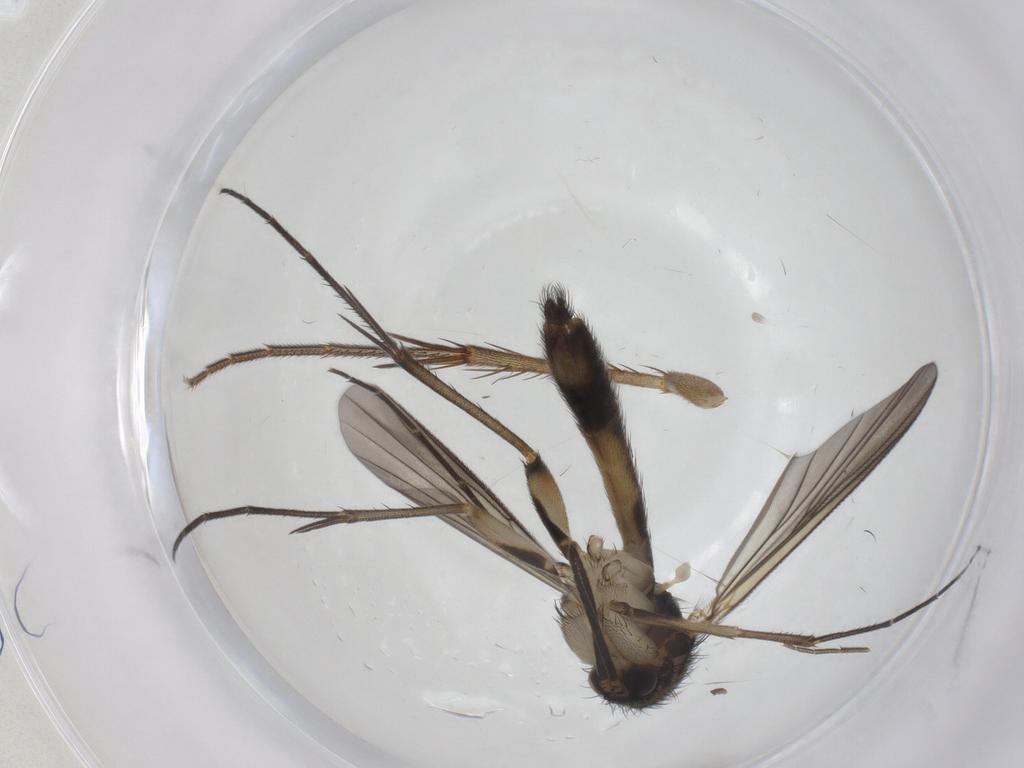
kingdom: Animalia
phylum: Arthropoda
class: Insecta
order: Diptera
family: Mycetophilidae
